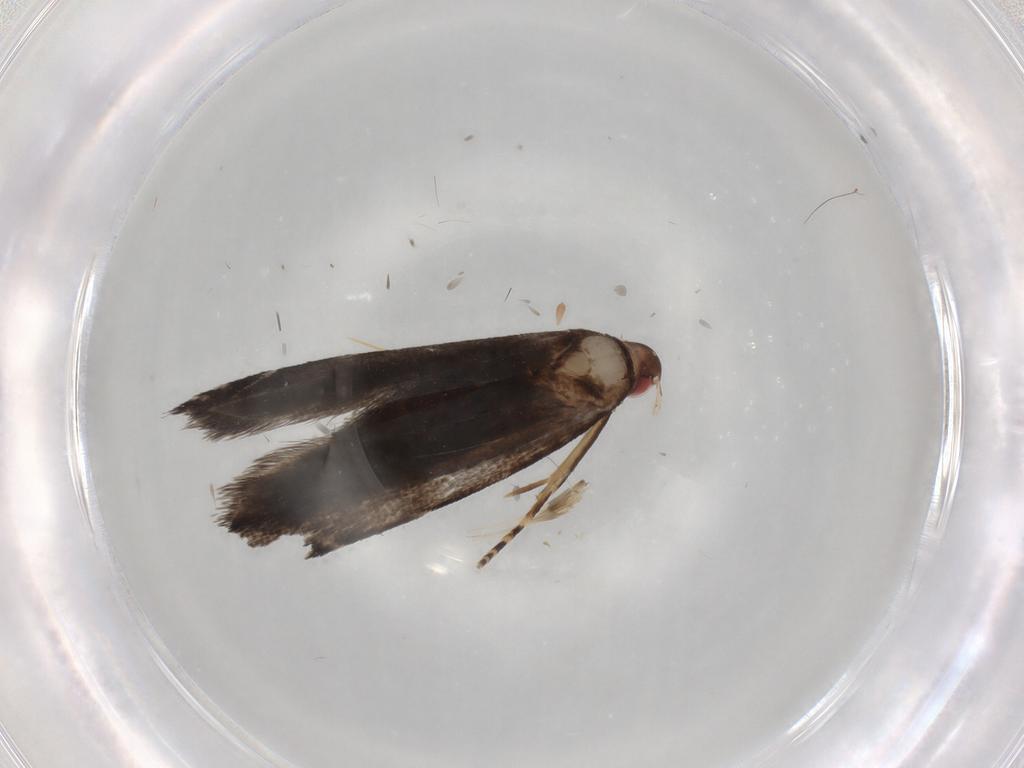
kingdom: Animalia
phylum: Arthropoda
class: Insecta
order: Lepidoptera
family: Gelechiidae
